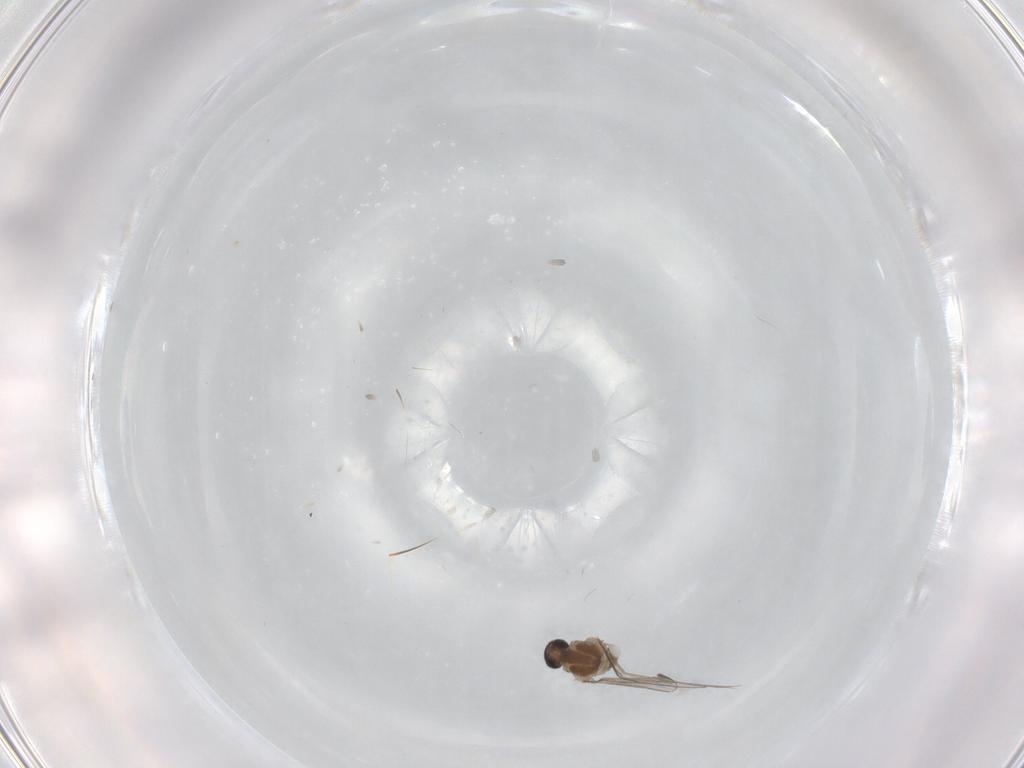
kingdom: Animalia
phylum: Arthropoda
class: Insecta
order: Diptera
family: Cecidomyiidae
